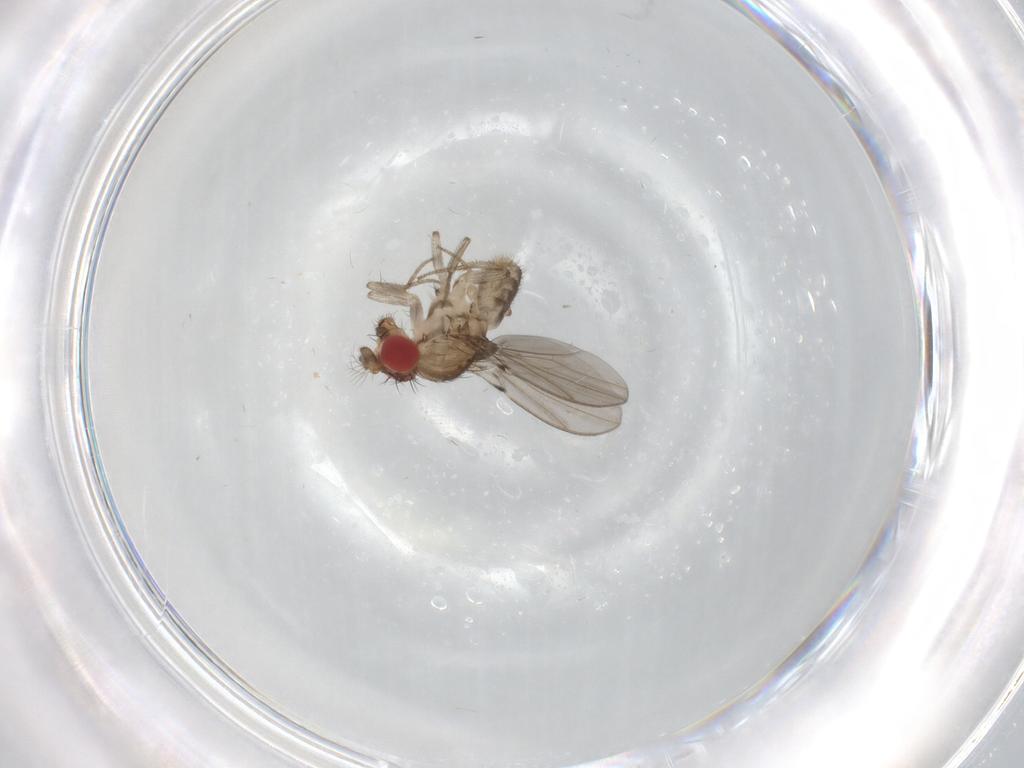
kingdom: Animalia
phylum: Arthropoda
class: Insecta
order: Diptera
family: Drosophilidae
